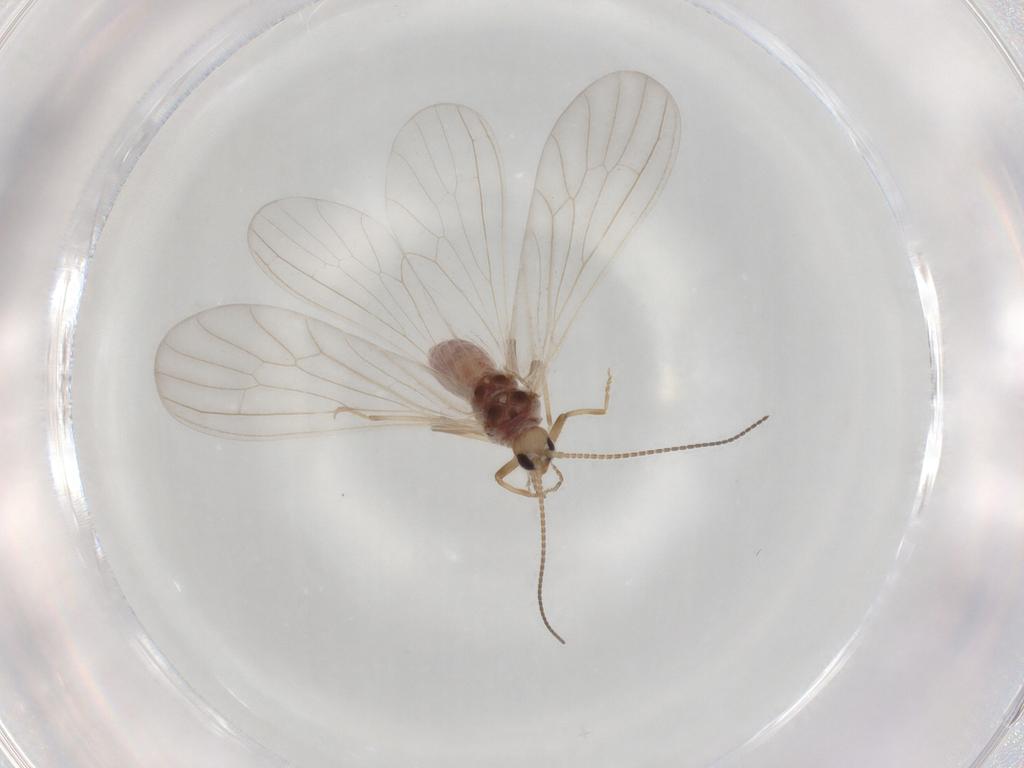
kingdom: Animalia
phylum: Arthropoda
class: Insecta
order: Neuroptera
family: Coniopterygidae
